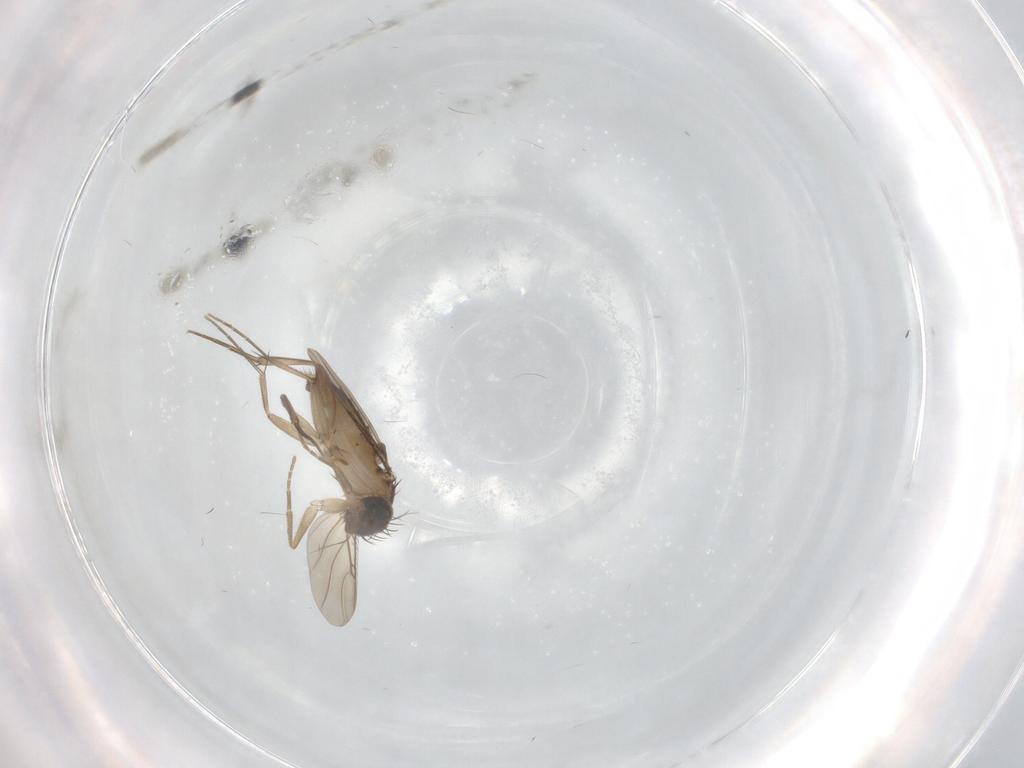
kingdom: Animalia
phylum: Arthropoda
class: Insecta
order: Diptera
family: Phoridae
